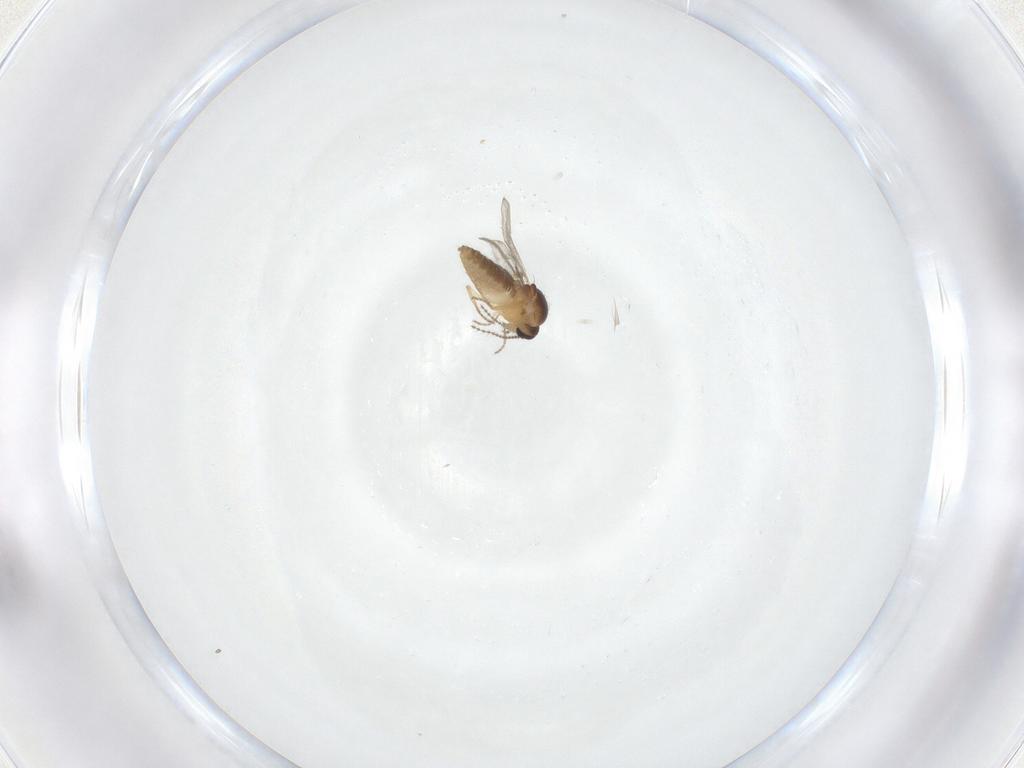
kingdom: Animalia
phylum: Arthropoda
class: Insecta
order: Diptera
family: Ceratopogonidae
